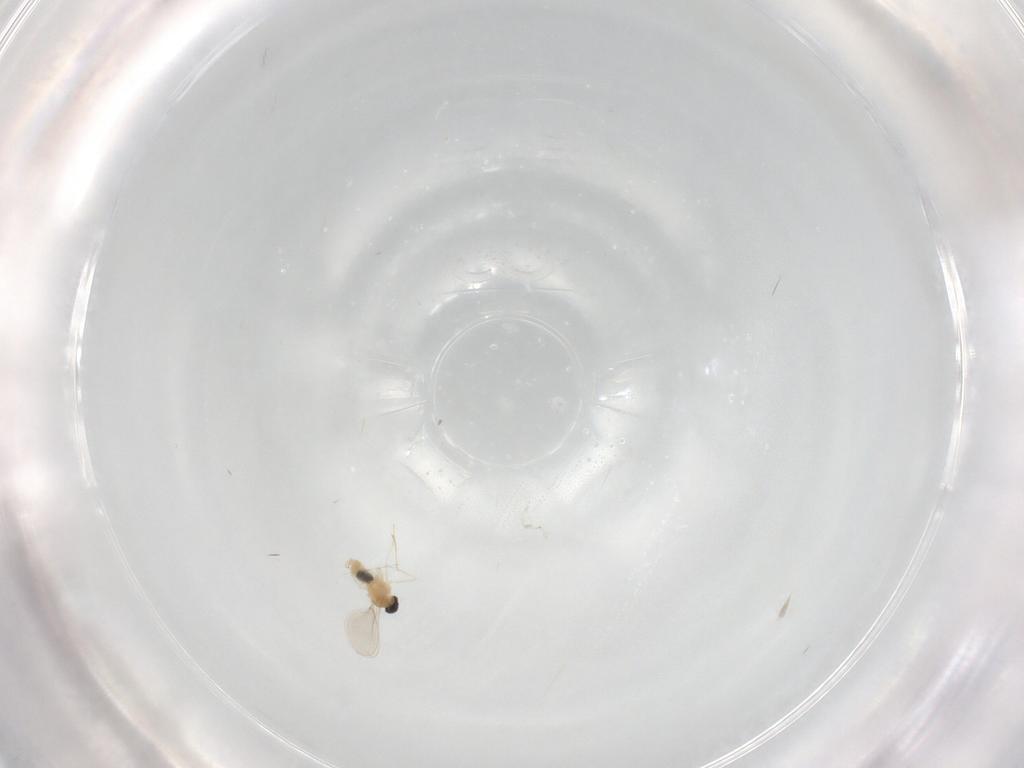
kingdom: Animalia
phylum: Arthropoda
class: Insecta
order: Diptera
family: Cecidomyiidae
